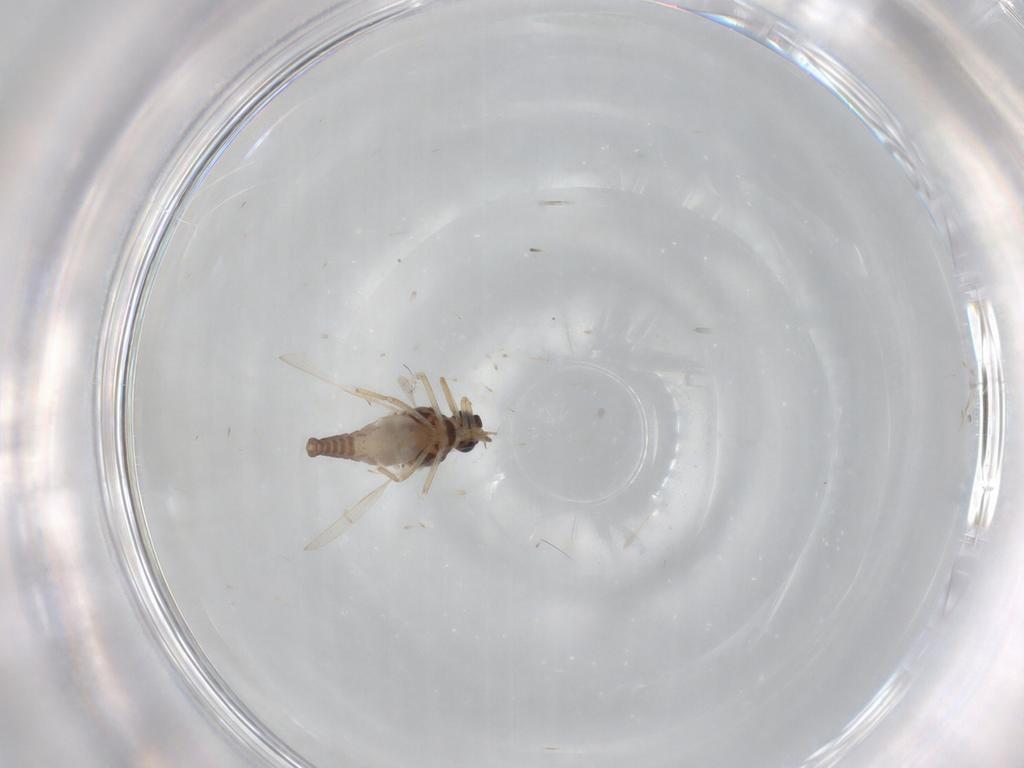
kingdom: Animalia
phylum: Arthropoda
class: Insecta
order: Diptera
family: Ceratopogonidae
